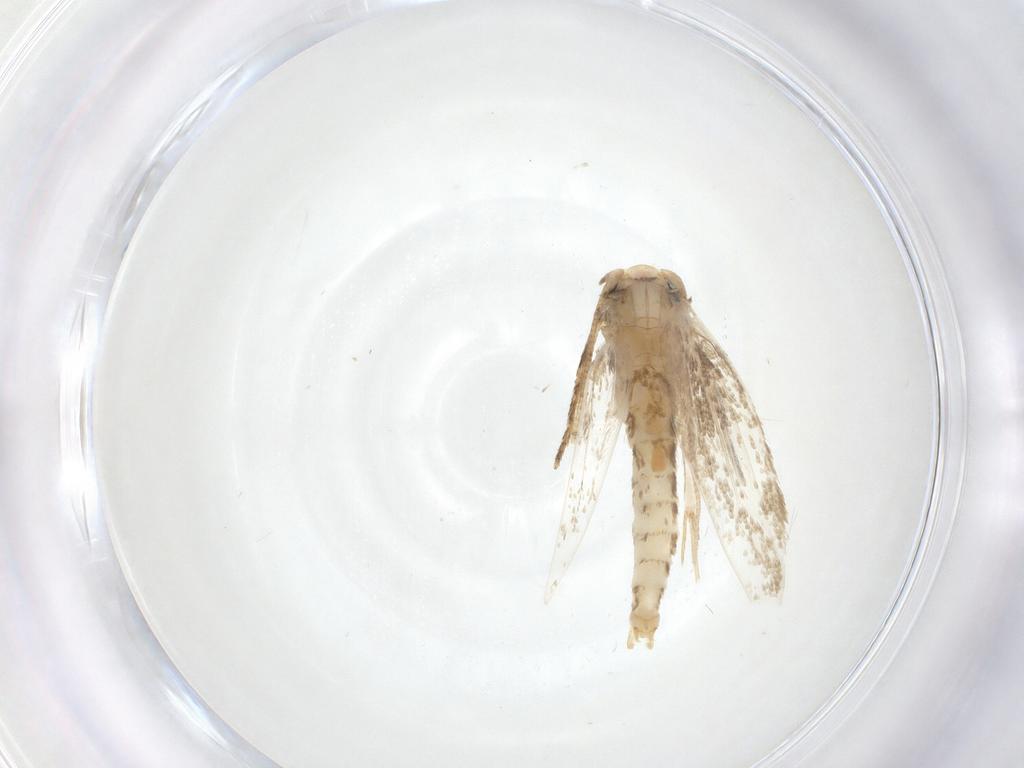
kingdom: Animalia
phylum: Arthropoda
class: Insecta
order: Lepidoptera
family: Tineidae
